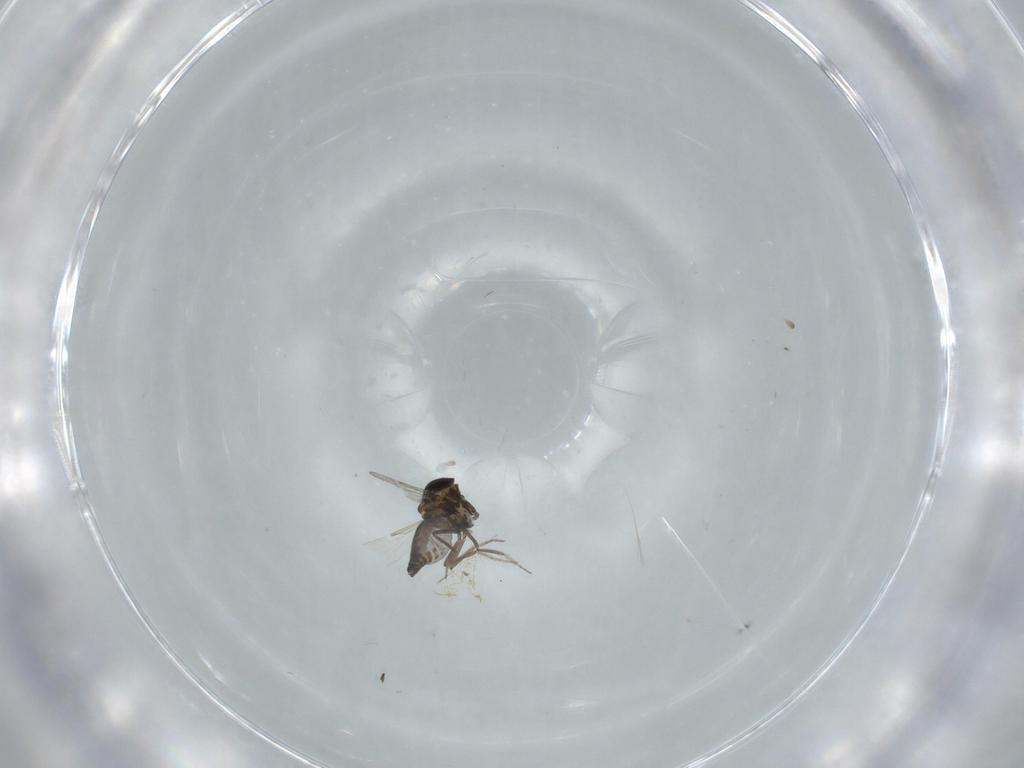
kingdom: Animalia
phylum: Arthropoda
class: Insecta
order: Diptera
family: Ceratopogonidae
